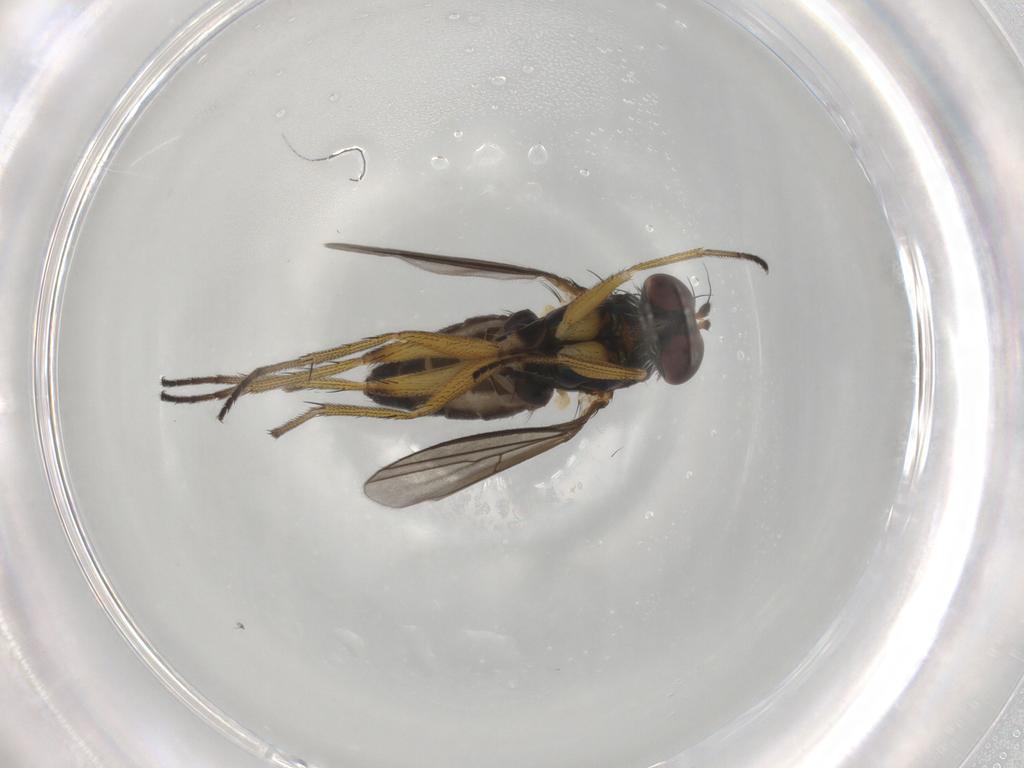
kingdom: Animalia
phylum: Arthropoda
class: Insecta
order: Diptera
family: Dolichopodidae
